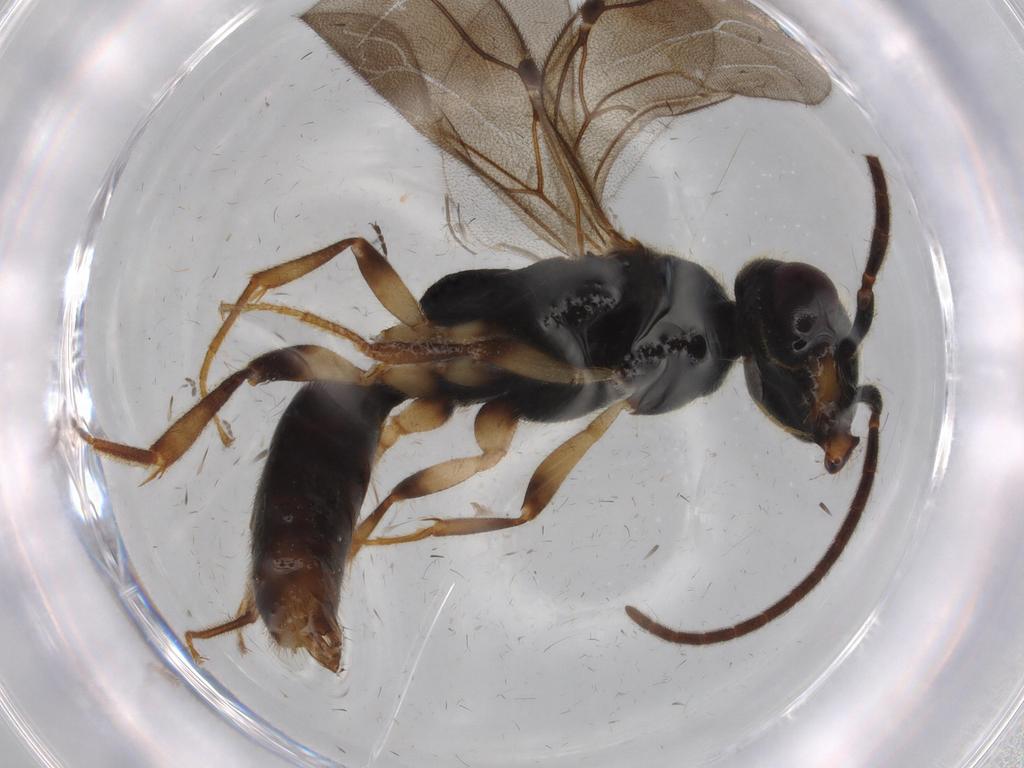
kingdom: Animalia
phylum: Arthropoda
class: Insecta
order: Hymenoptera
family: Bethylidae
